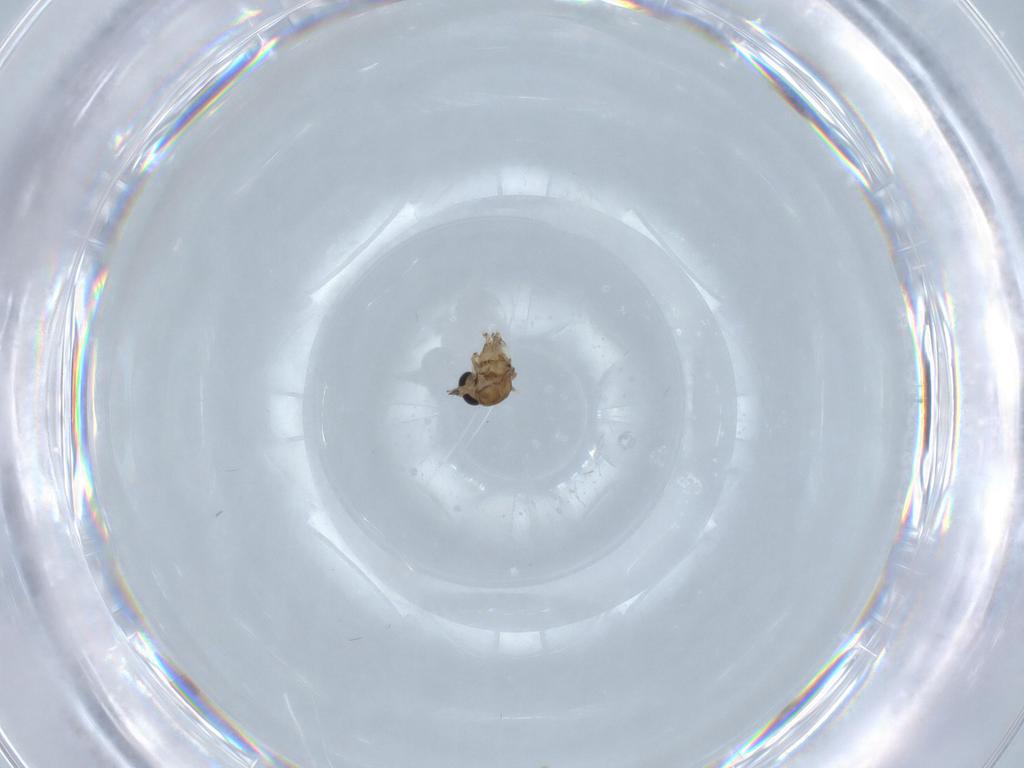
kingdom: Animalia
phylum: Arthropoda
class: Insecta
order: Diptera
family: Ceratopogonidae
